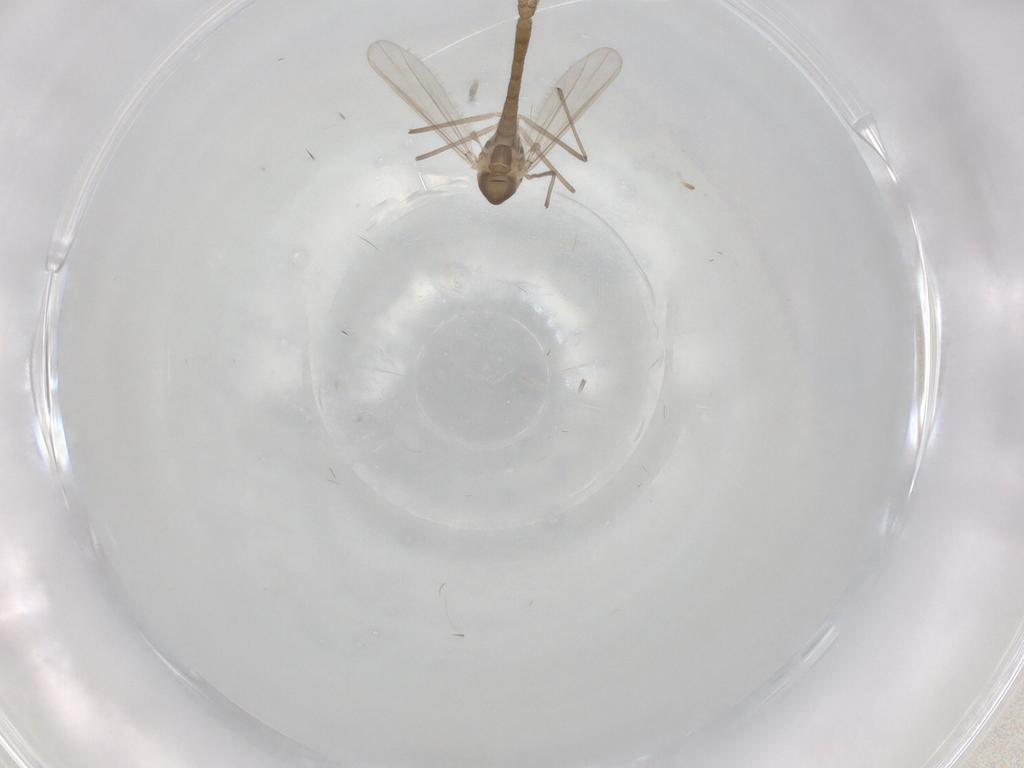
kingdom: Animalia
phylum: Arthropoda
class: Insecta
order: Diptera
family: Chironomidae
